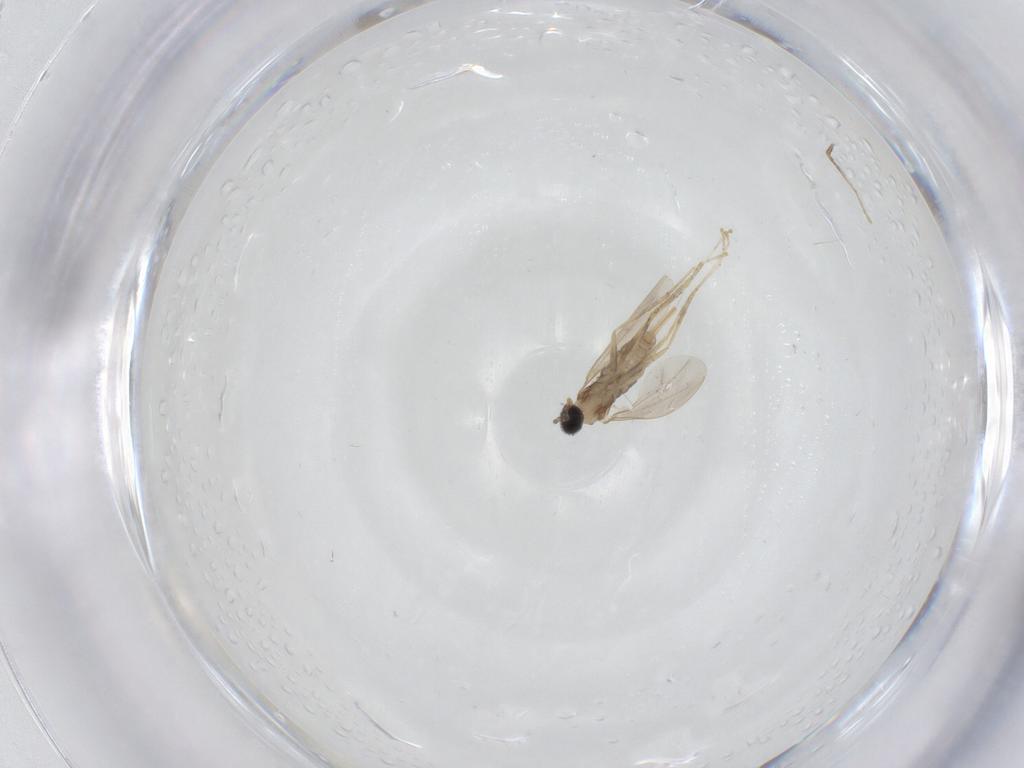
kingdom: Animalia
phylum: Arthropoda
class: Insecta
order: Diptera
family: Cecidomyiidae
